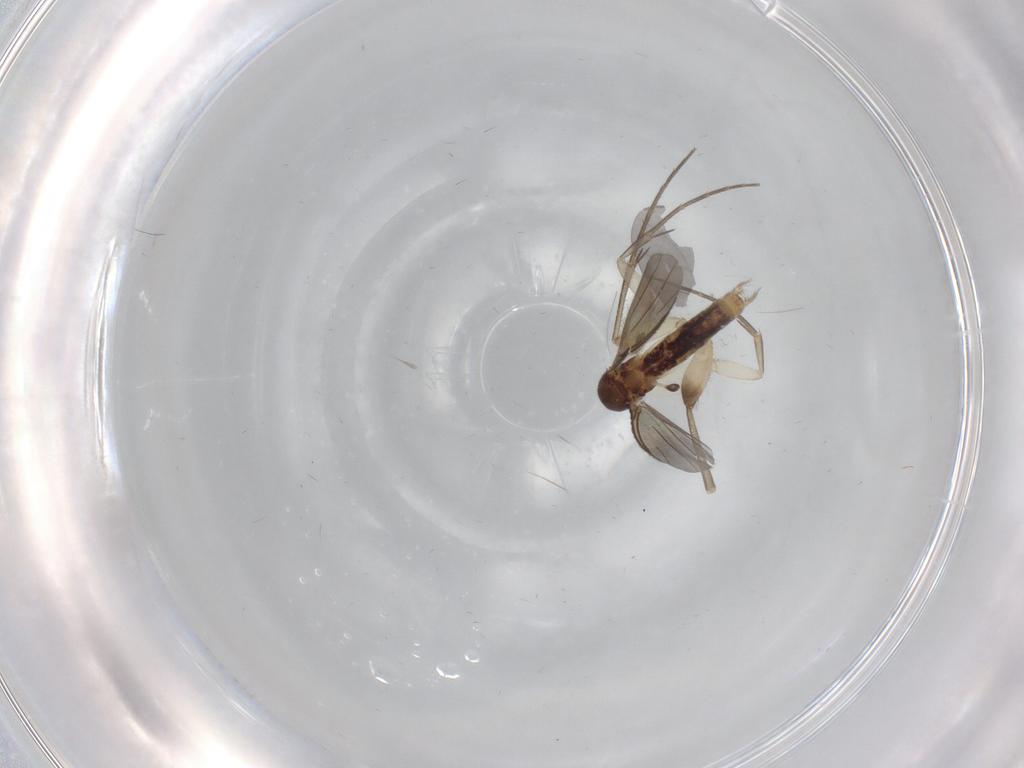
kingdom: Animalia
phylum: Arthropoda
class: Insecta
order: Diptera
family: Mycetophilidae
